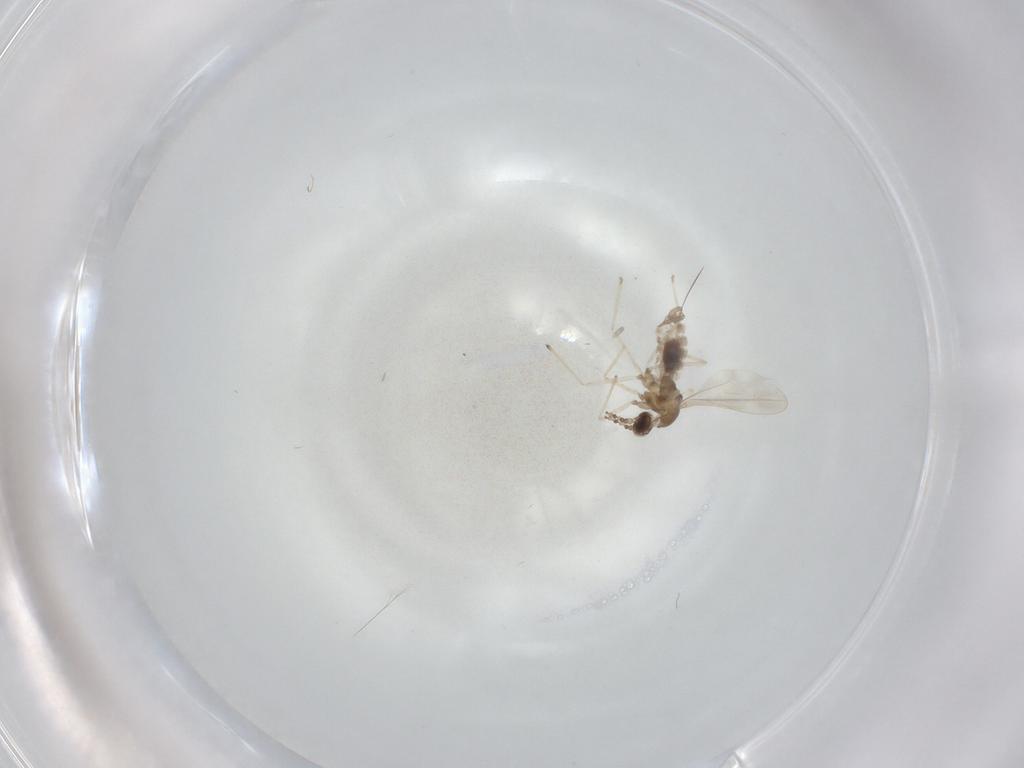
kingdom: Animalia
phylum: Arthropoda
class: Insecta
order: Diptera
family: Cecidomyiidae
